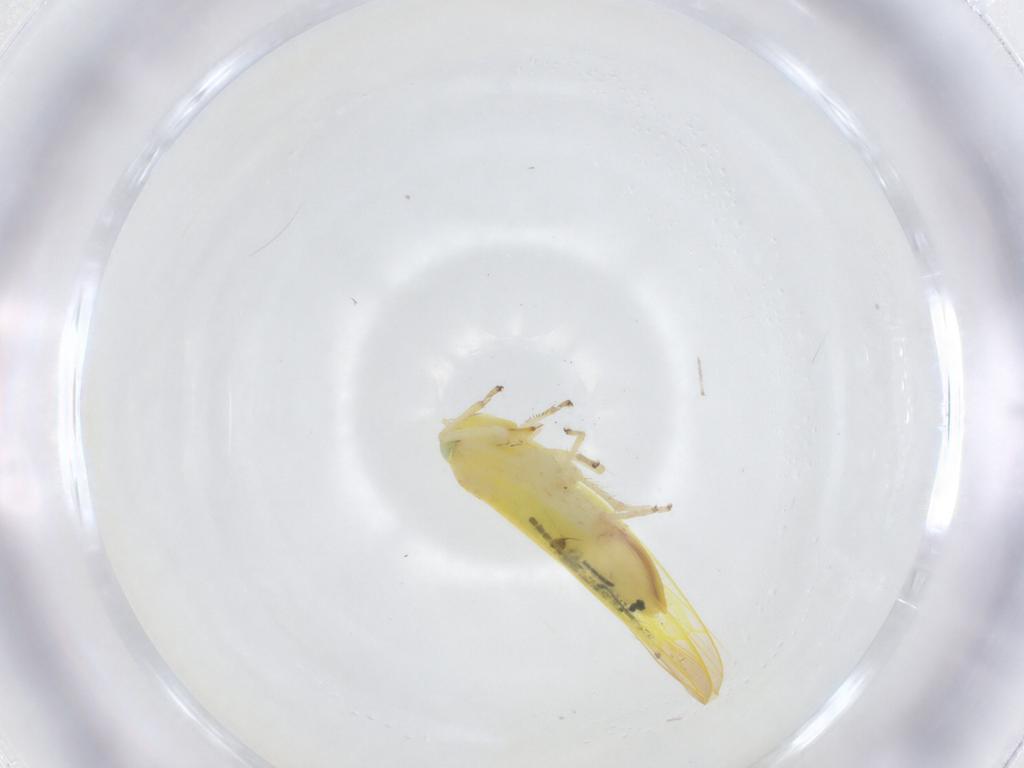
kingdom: Animalia
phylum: Arthropoda
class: Insecta
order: Hemiptera
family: Cicadellidae
